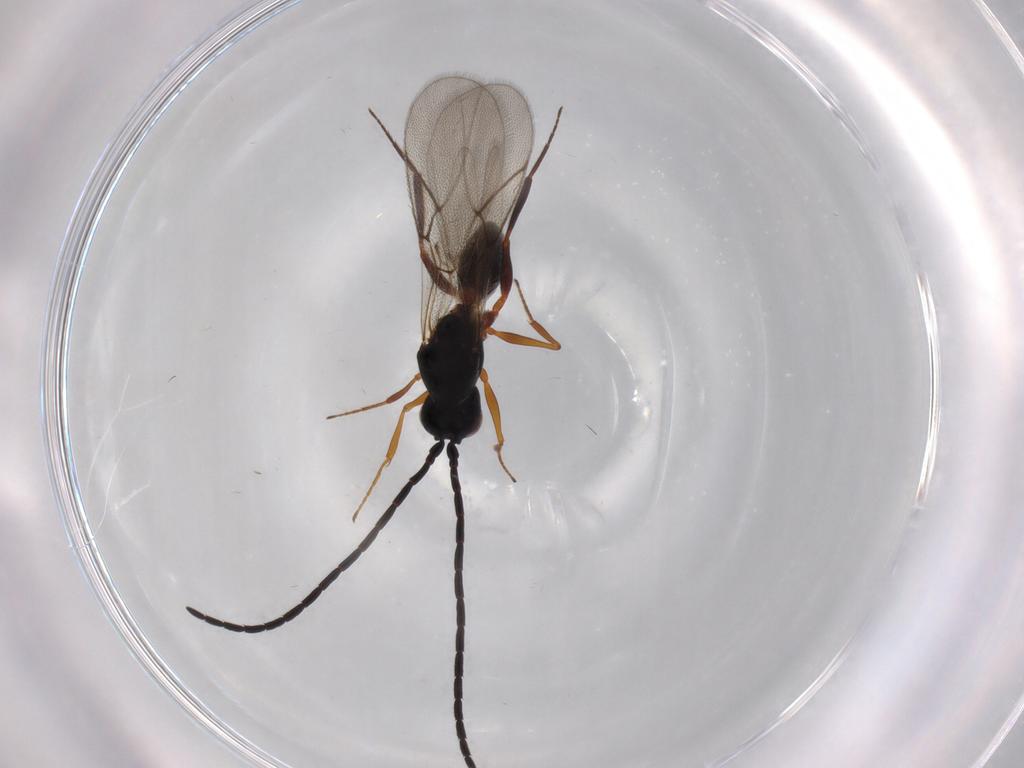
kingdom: Animalia
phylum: Arthropoda
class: Insecta
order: Hymenoptera
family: Figitidae
